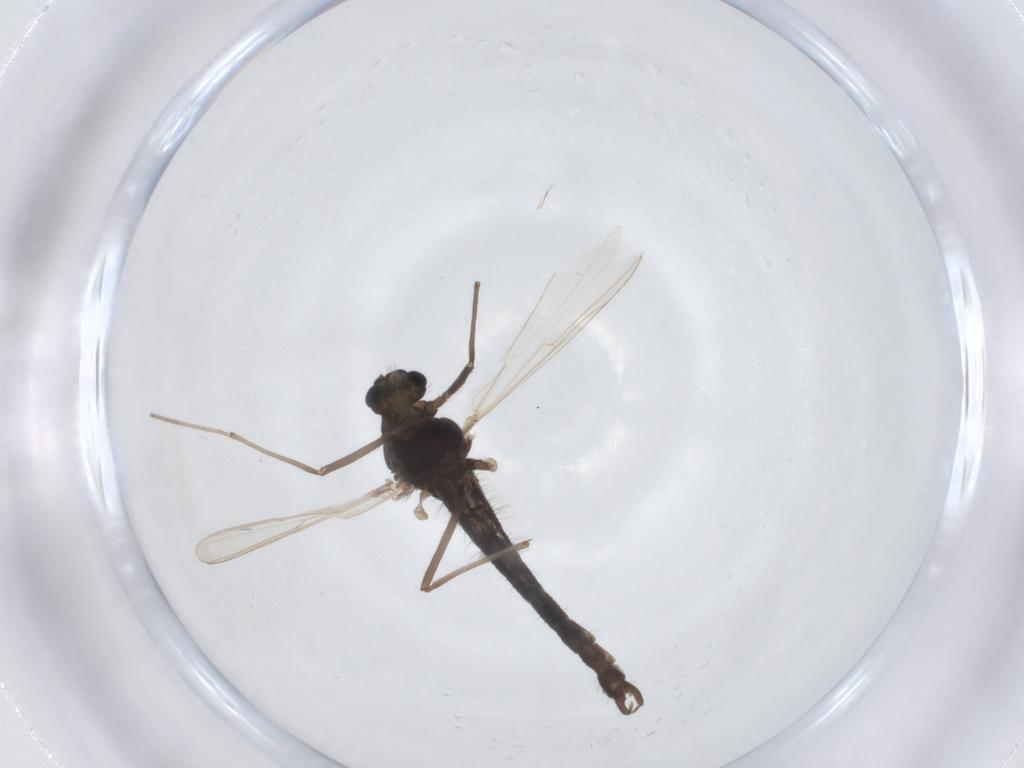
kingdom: Animalia
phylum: Arthropoda
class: Insecta
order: Diptera
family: Chironomidae
